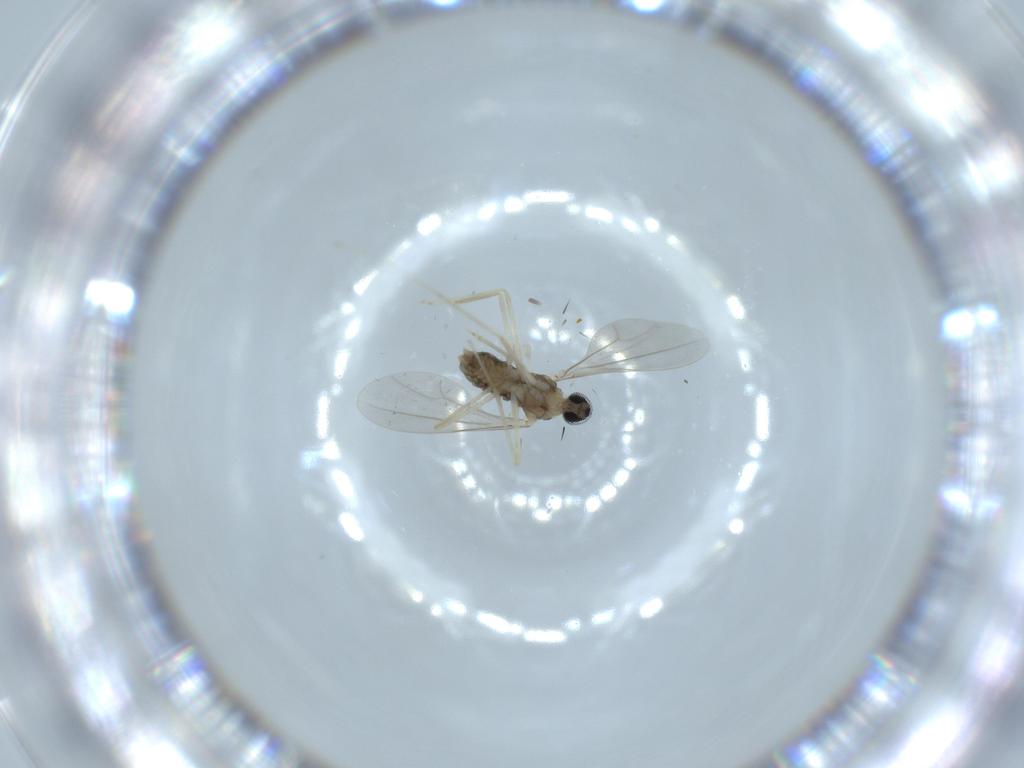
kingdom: Animalia
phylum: Arthropoda
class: Insecta
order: Diptera
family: Cecidomyiidae
